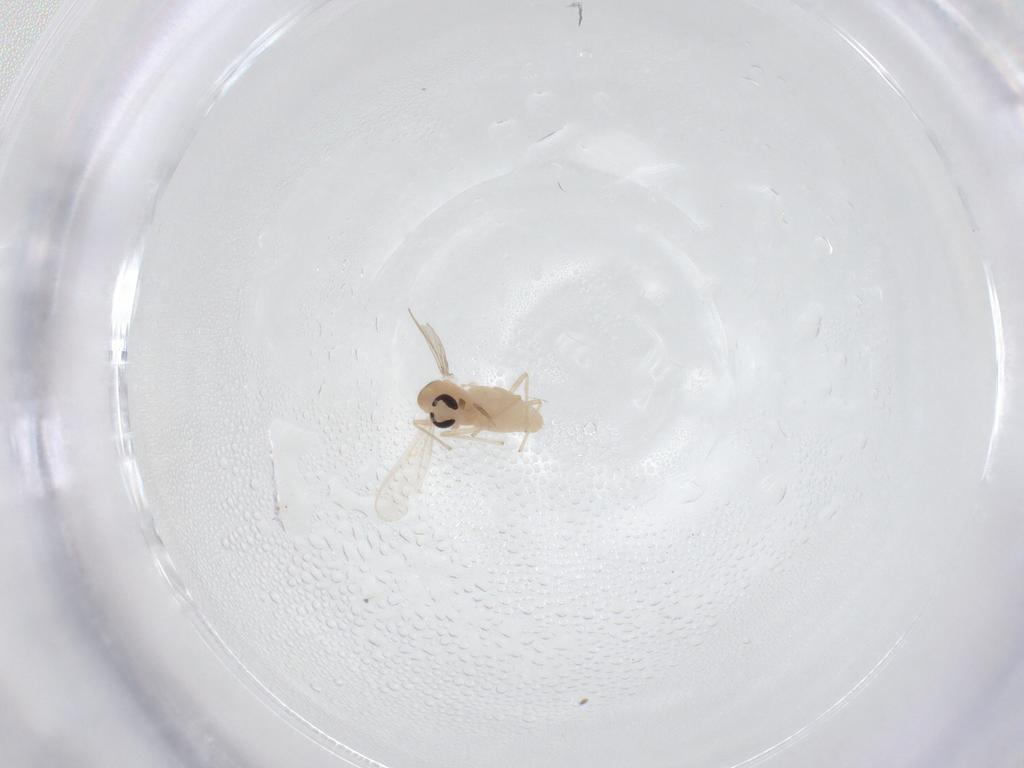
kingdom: Animalia
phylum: Arthropoda
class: Insecta
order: Diptera
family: Chironomidae
